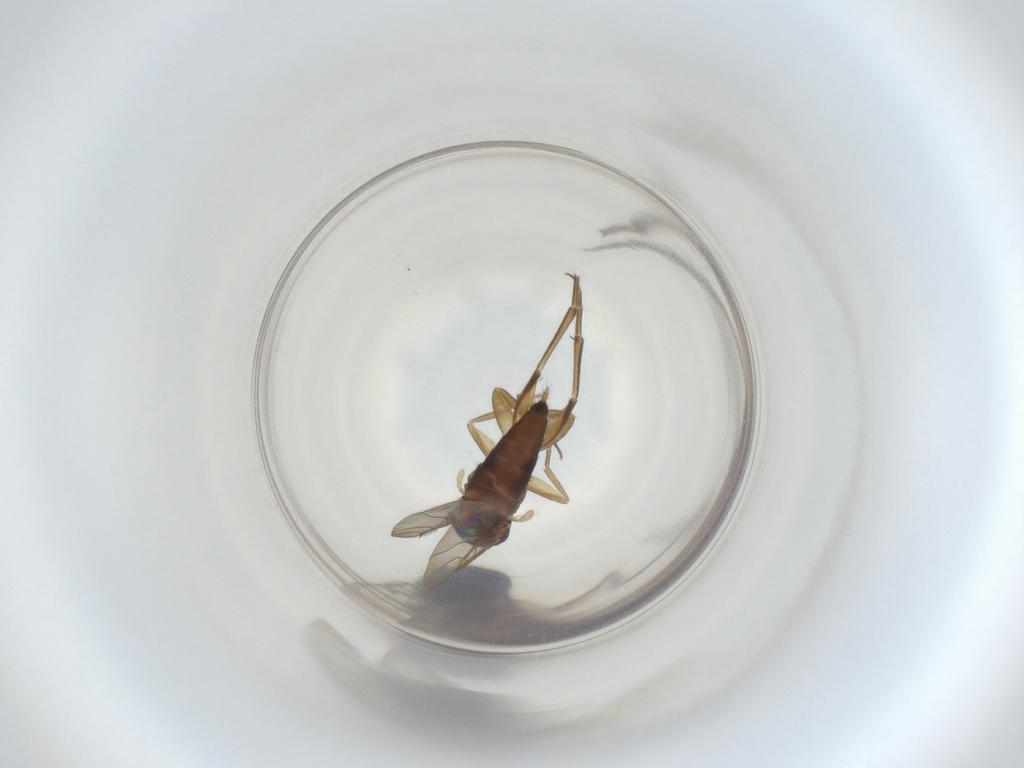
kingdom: Animalia
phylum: Arthropoda
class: Insecta
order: Diptera
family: Phoridae
